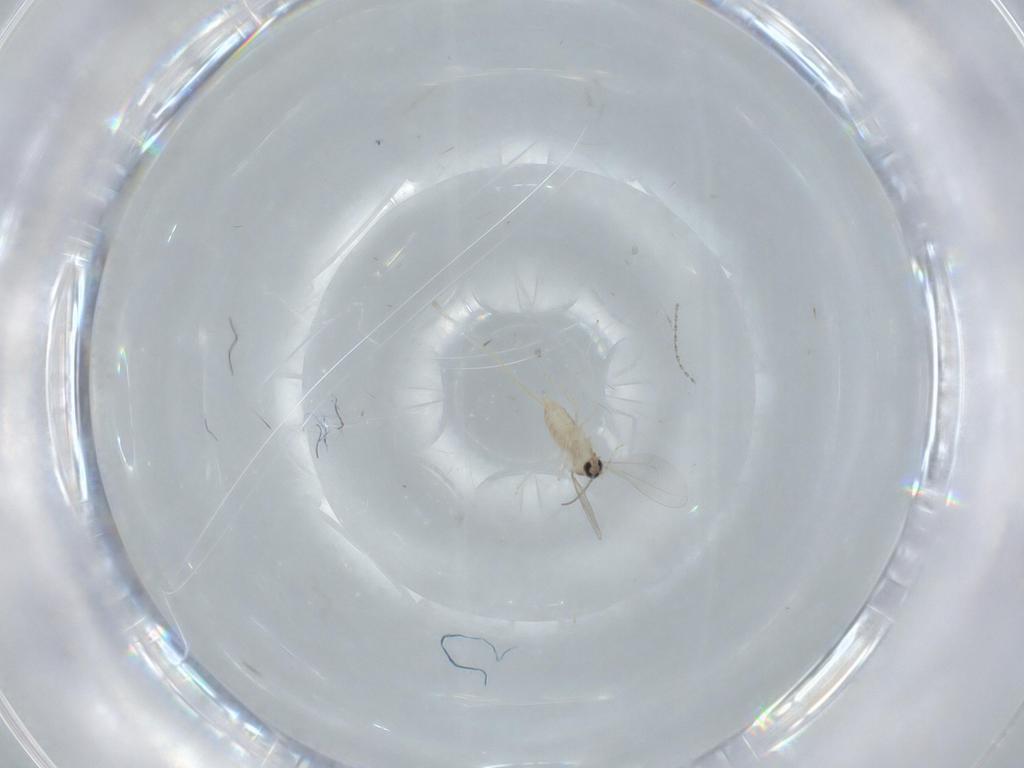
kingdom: Animalia
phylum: Arthropoda
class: Insecta
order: Diptera
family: Cecidomyiidae
